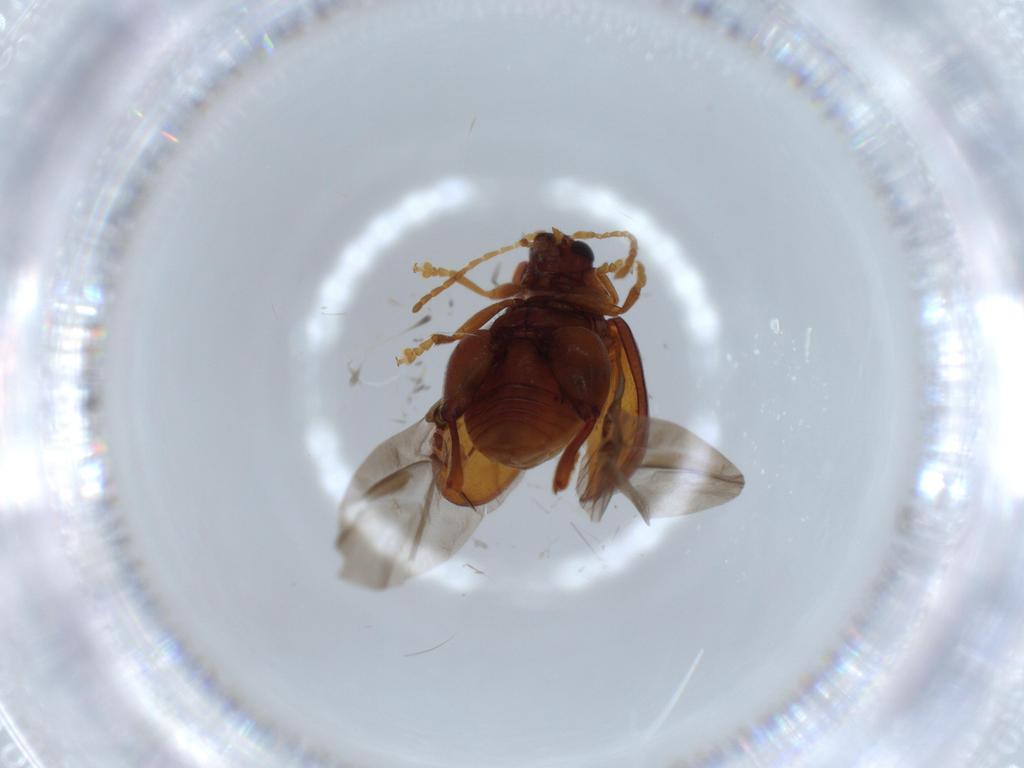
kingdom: Animalia
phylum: Arthropoda
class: Insecta
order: Coleoptera
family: Chrysomelidae
